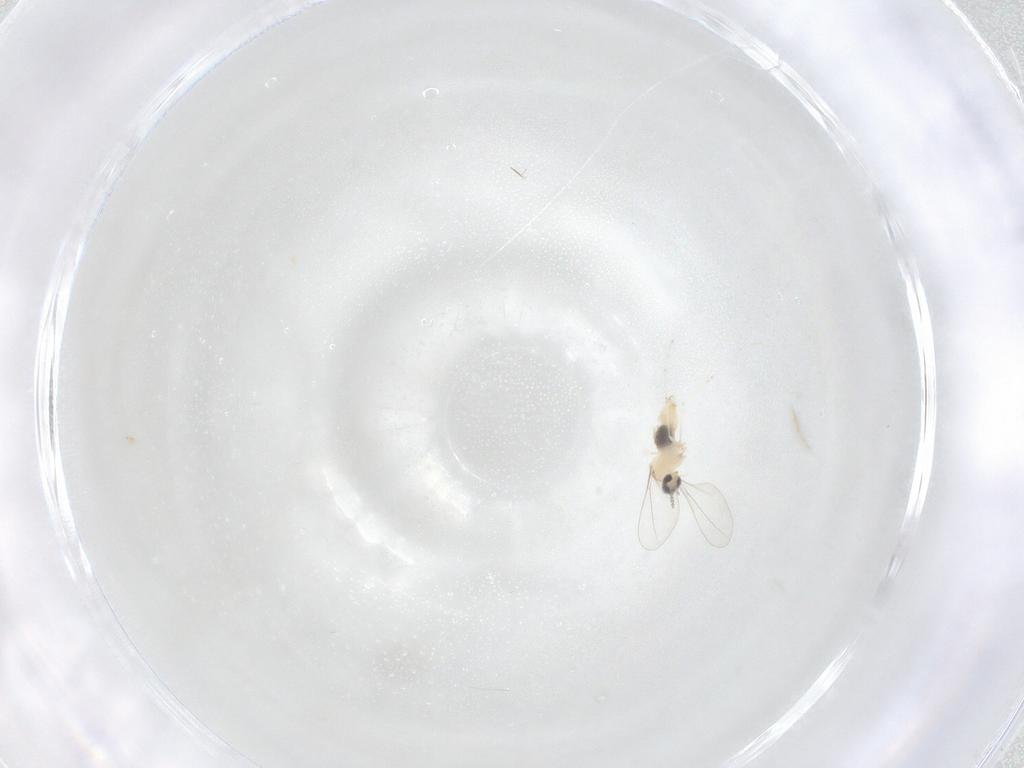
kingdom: Animalia
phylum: Arthropoda
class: Insecta
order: Diptera
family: Cecidomyiidae
